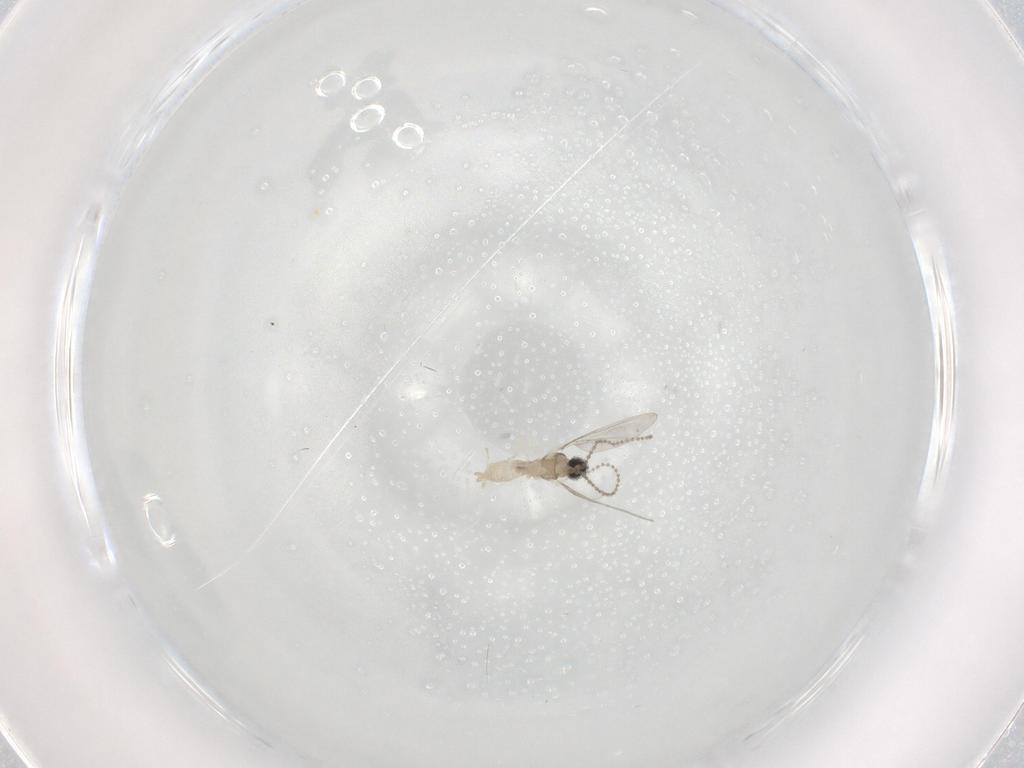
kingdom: Animalia
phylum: Arthropoda
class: Insecta
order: Diptera
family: Cecidomyiidae
